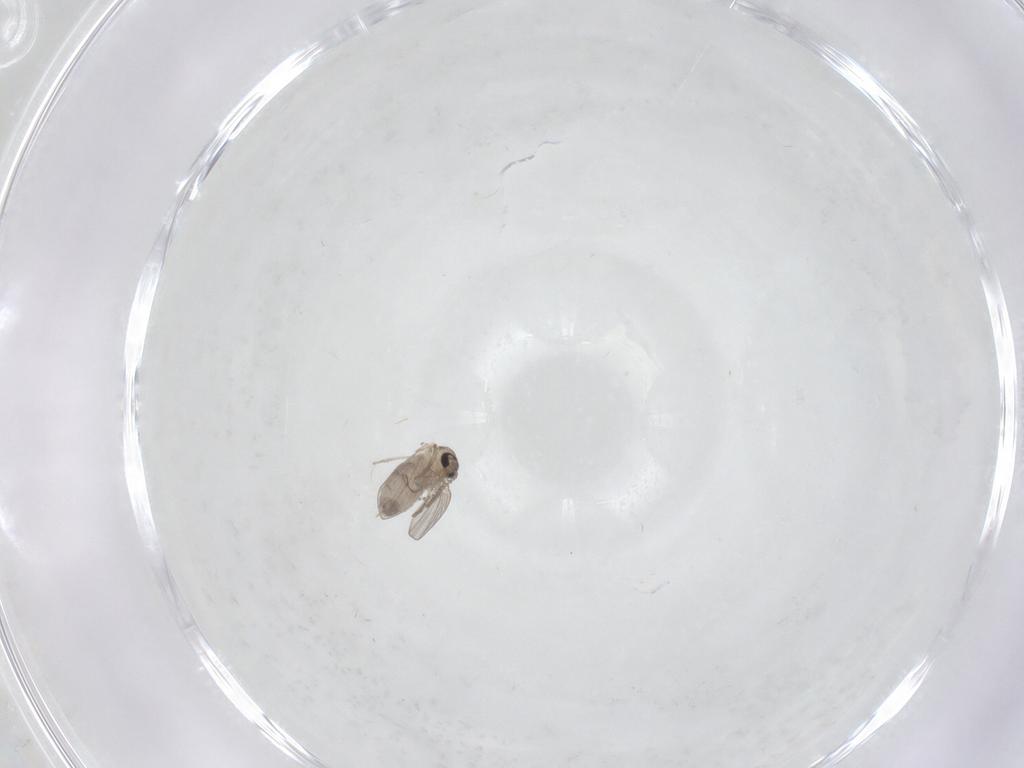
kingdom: Animalia
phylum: Arthropoda
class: Insecta
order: Diptera
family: Psychodidae
